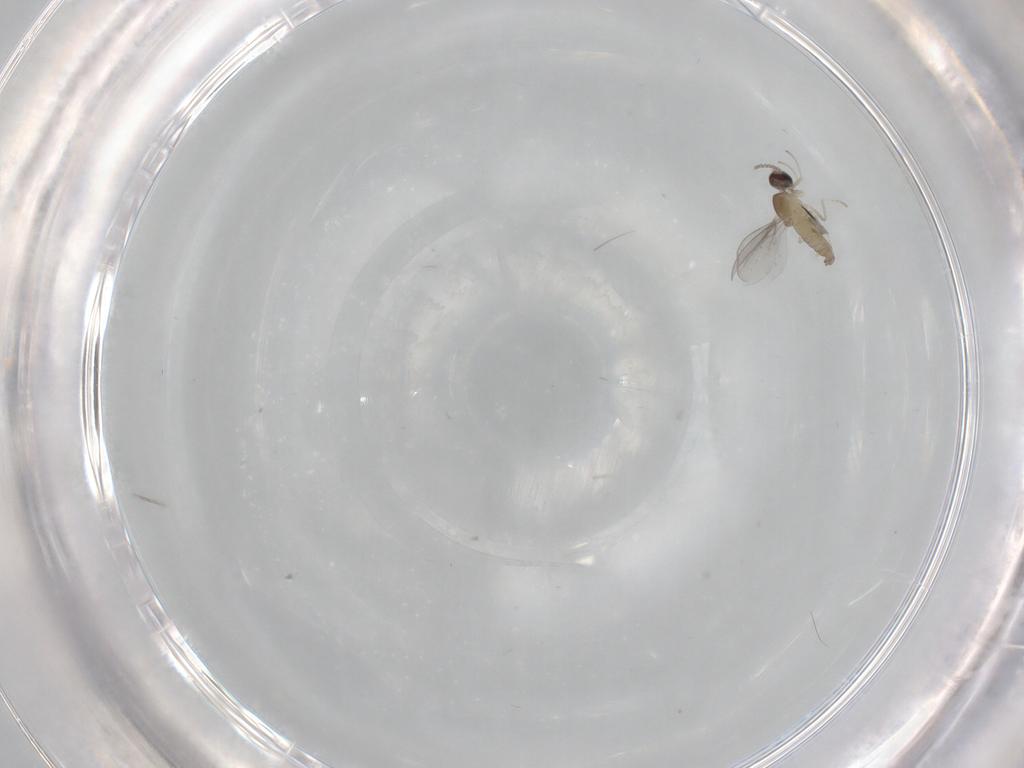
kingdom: Animalia
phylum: Arthropoda
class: Insecta
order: Diptera
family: Cecidomyiidae
